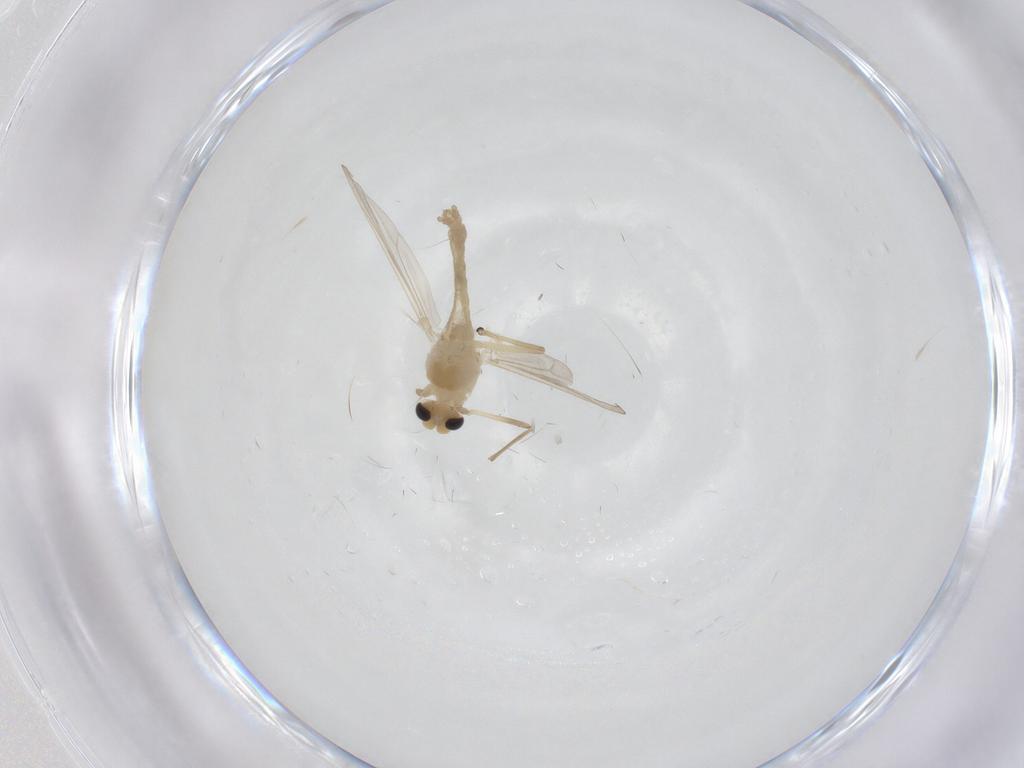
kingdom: Animalia
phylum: Arthropoda
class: Insecta
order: Diptera
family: Chironomidae
